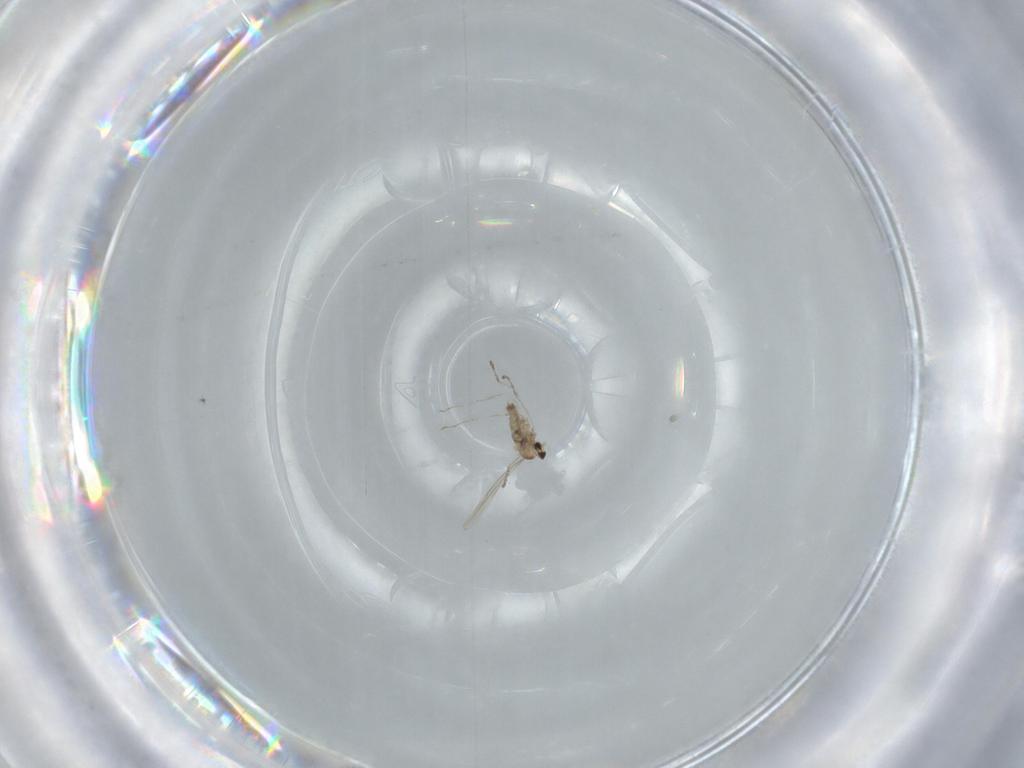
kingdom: Animalia
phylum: Arthropoda
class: Insecta
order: Diptera
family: Cecidomyiidae
